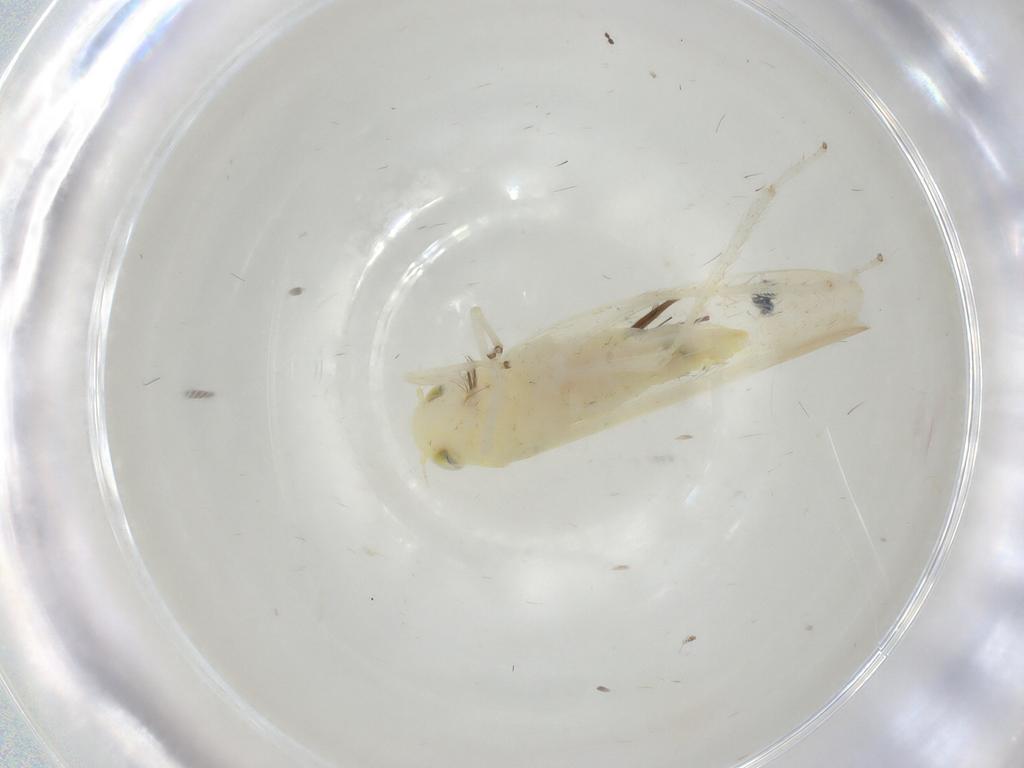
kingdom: Animalia
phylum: Arthropoda
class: Insecta
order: Hemiptera
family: Cicadellidae
